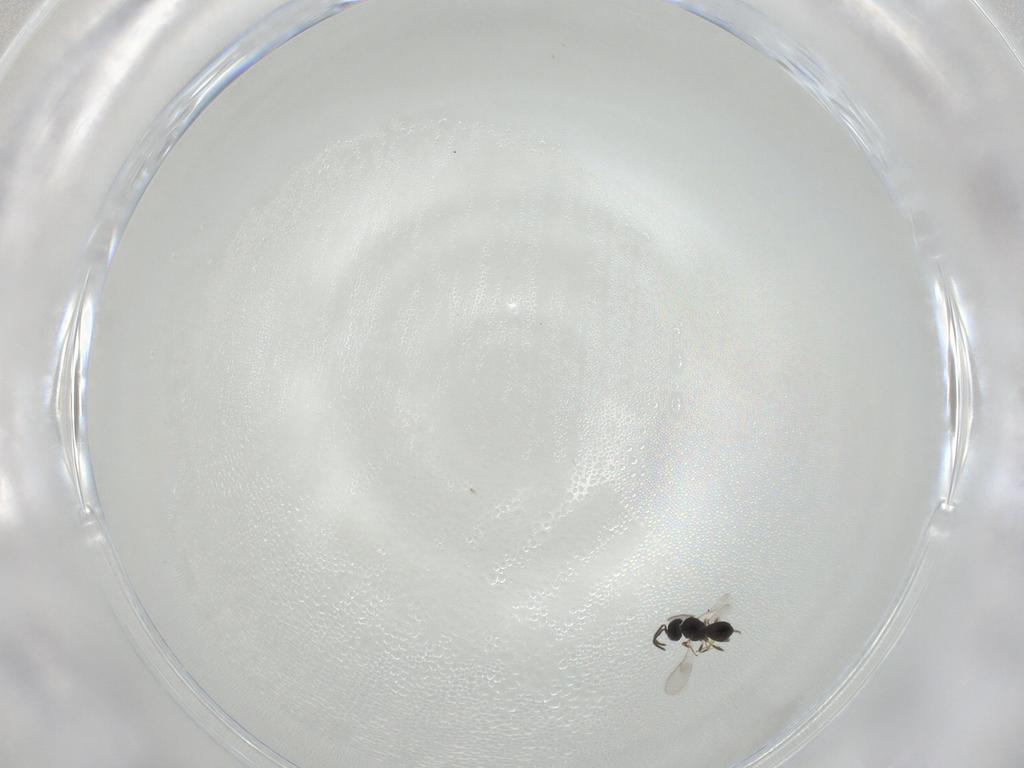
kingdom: Animalia
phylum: Arthropoda
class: Insecta
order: Hymenoptera
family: Scelionidae
